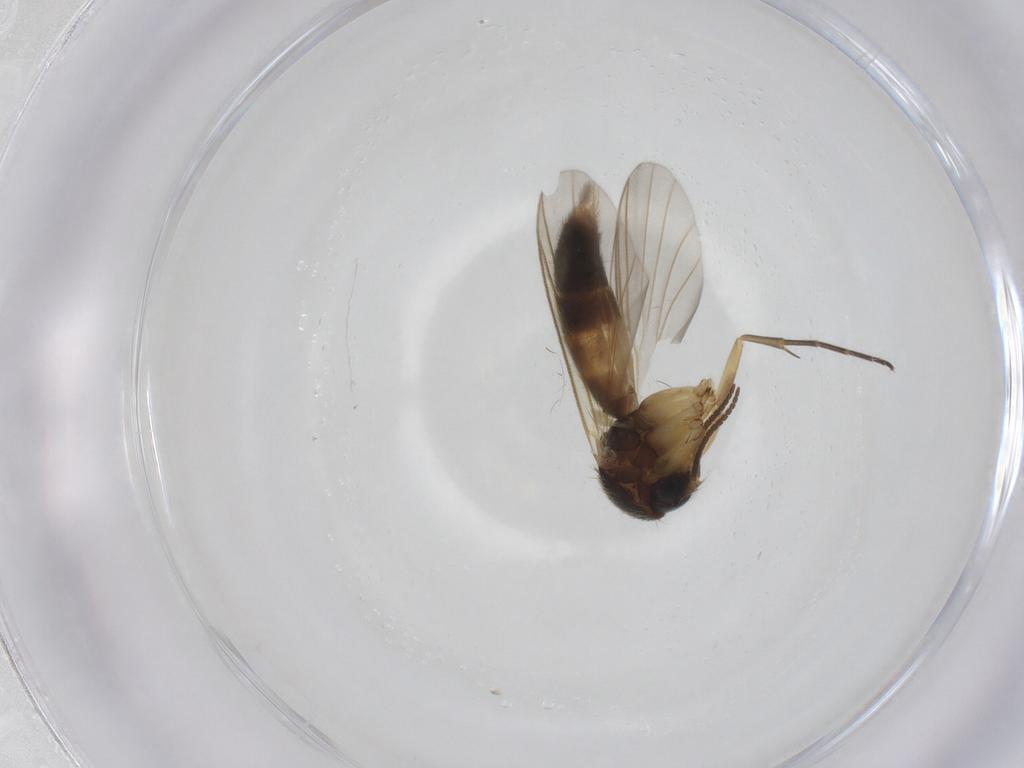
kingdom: Animalia
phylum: Arthropoda
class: Insecta
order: Diptera
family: Mycetophilidae
